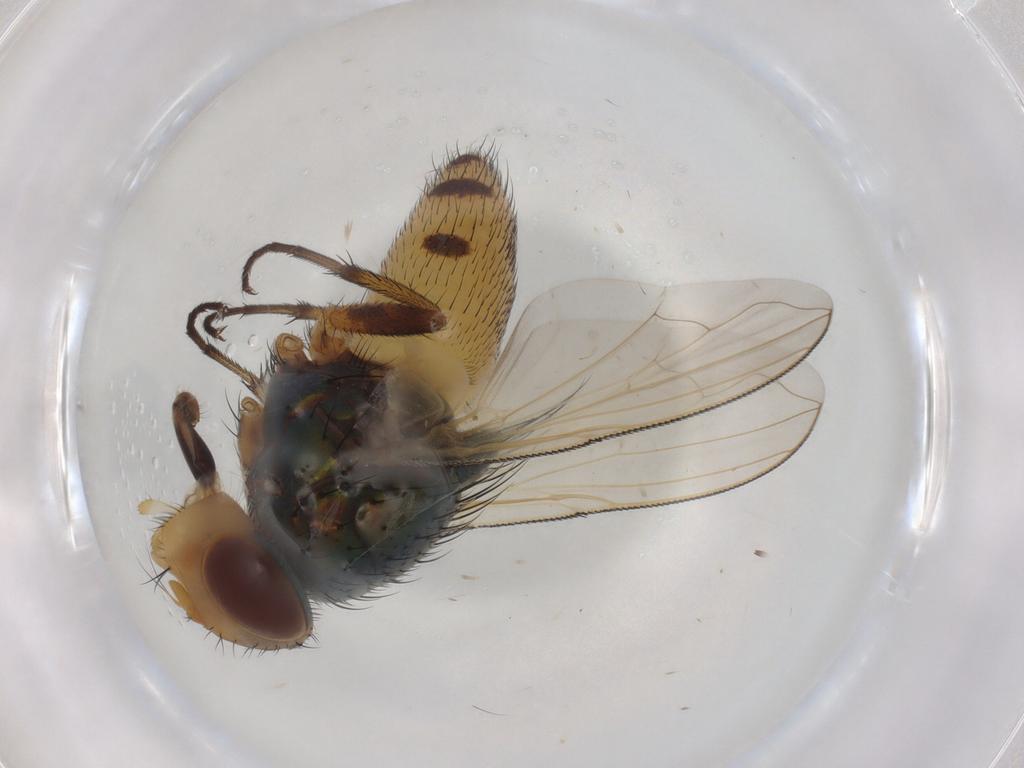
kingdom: Animalia
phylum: Arthropoda
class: Insecta
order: Diptera
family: Calliphoridae
